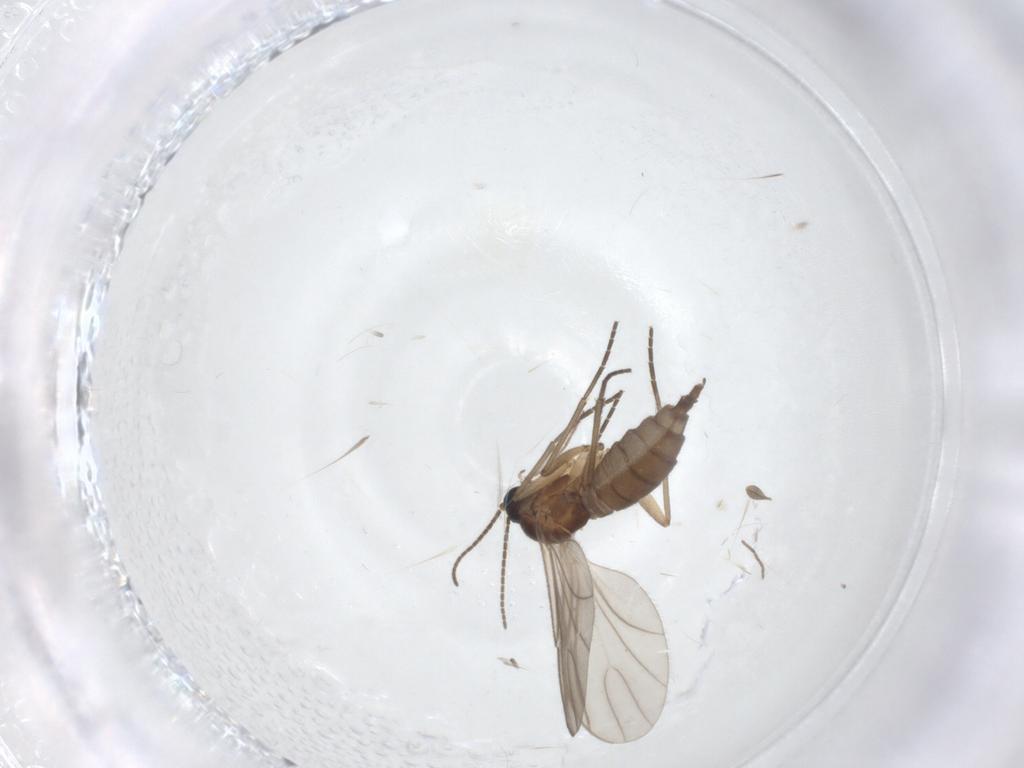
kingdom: Animalia
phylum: Arthropoda
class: Insecta
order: Diptera
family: Sciaridae
